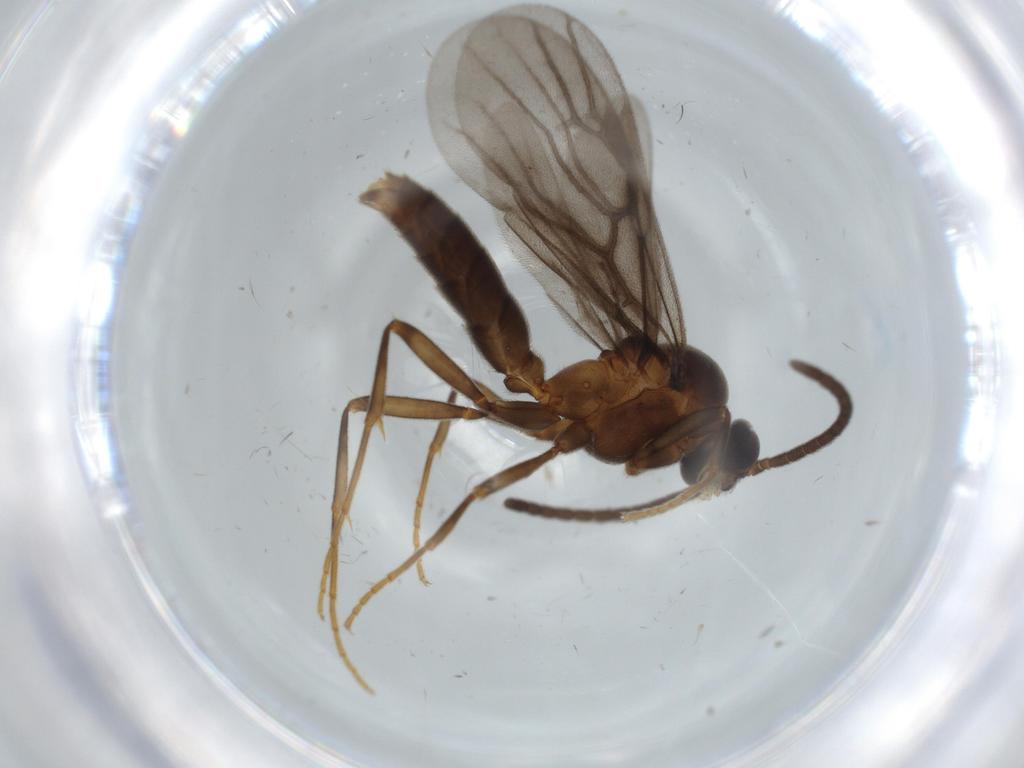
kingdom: Animalia
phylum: Arthropoda
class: Insecta
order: Hymenoptera
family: Formicidae
